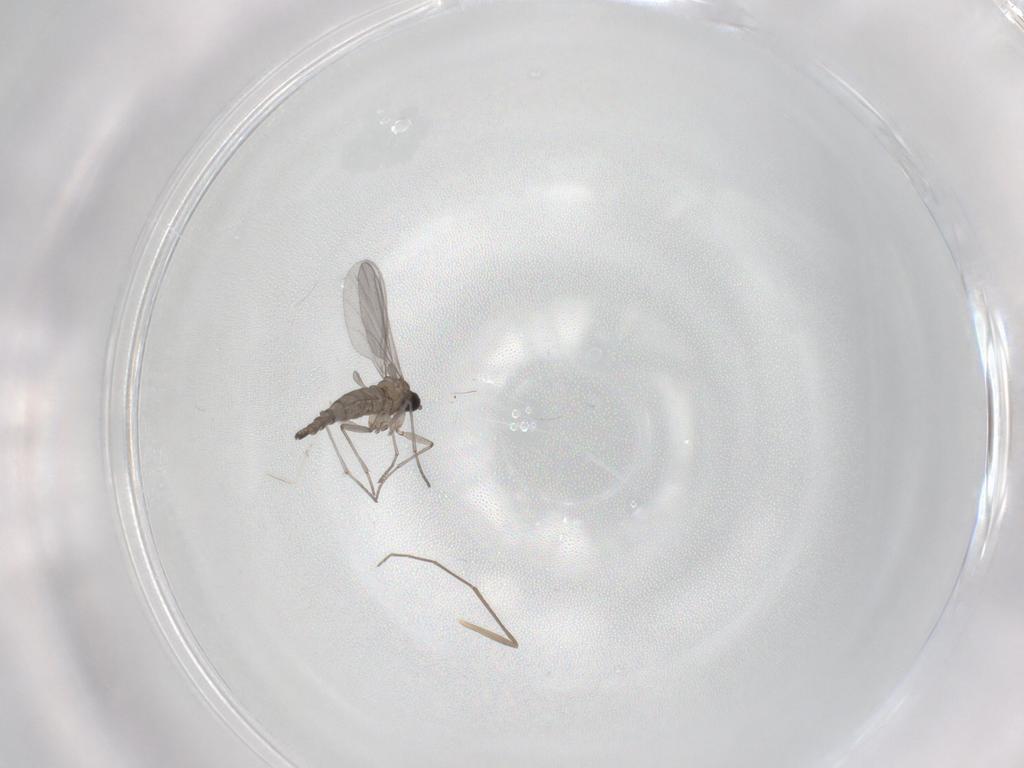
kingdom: Animalia
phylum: Arthropoda
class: Insecta
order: Diptera
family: Chironomidae
